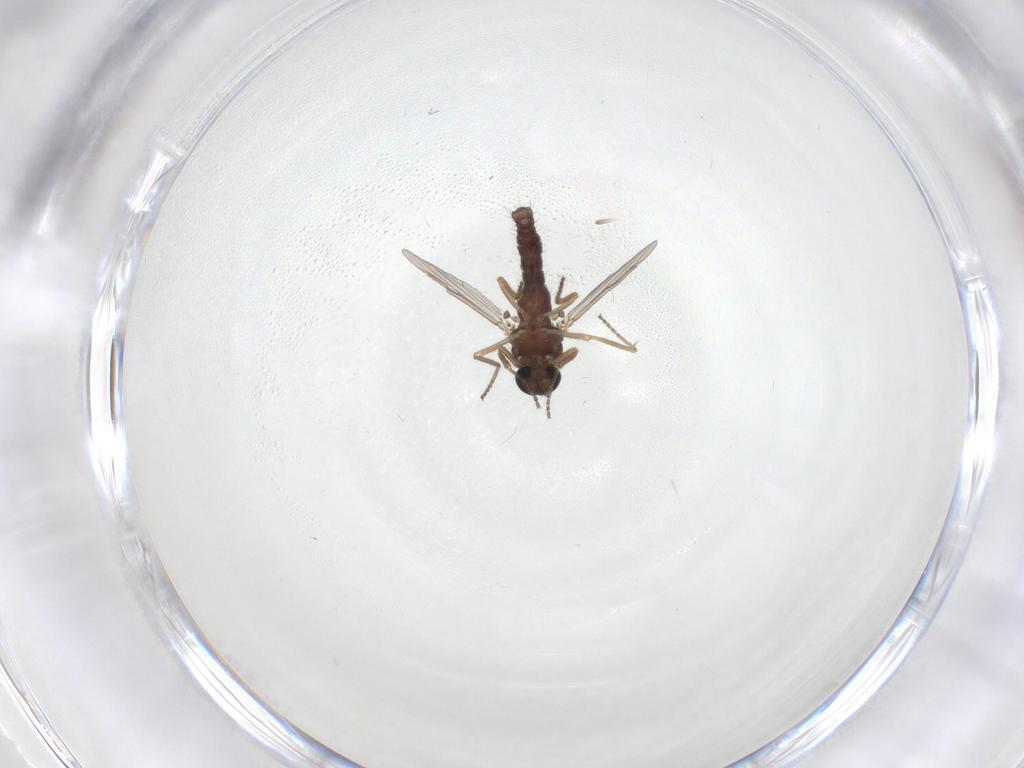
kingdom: Animalia
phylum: Arthropoda
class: Insecta
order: Diptera
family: Ceratopogonidae
